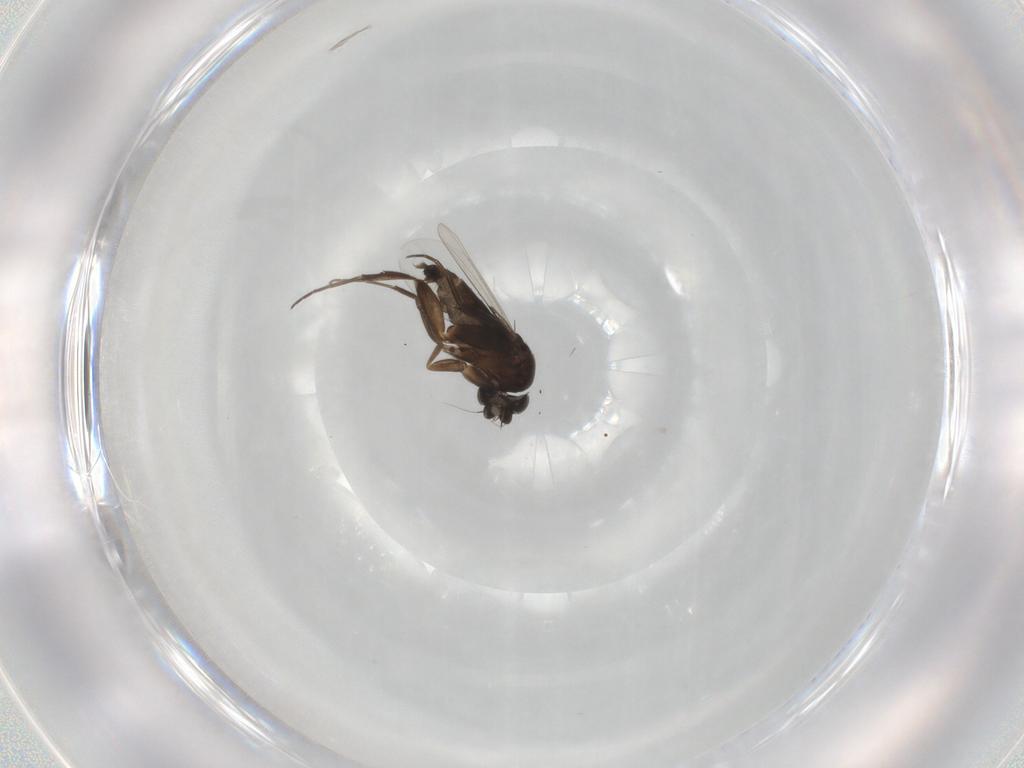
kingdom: Animalia
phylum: Arthropoda
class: Insecta
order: Diptera
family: Phoridae
